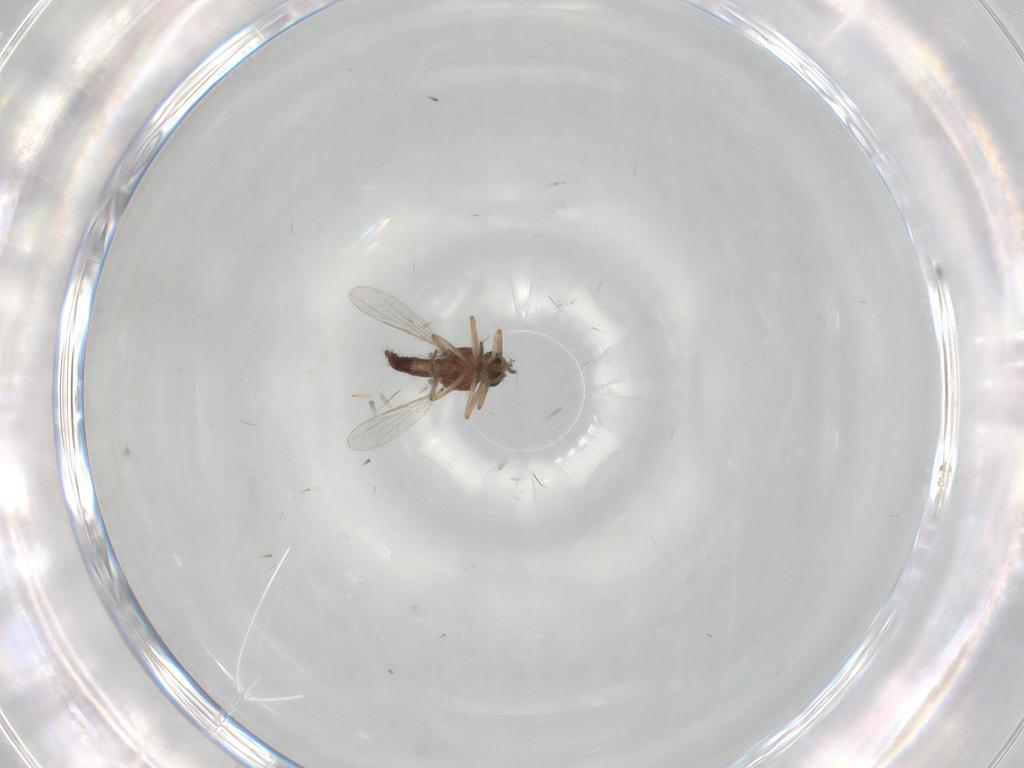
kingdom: Animalia
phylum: Arthropoda
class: Insecta
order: Diptera
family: Ceratopogonidae
